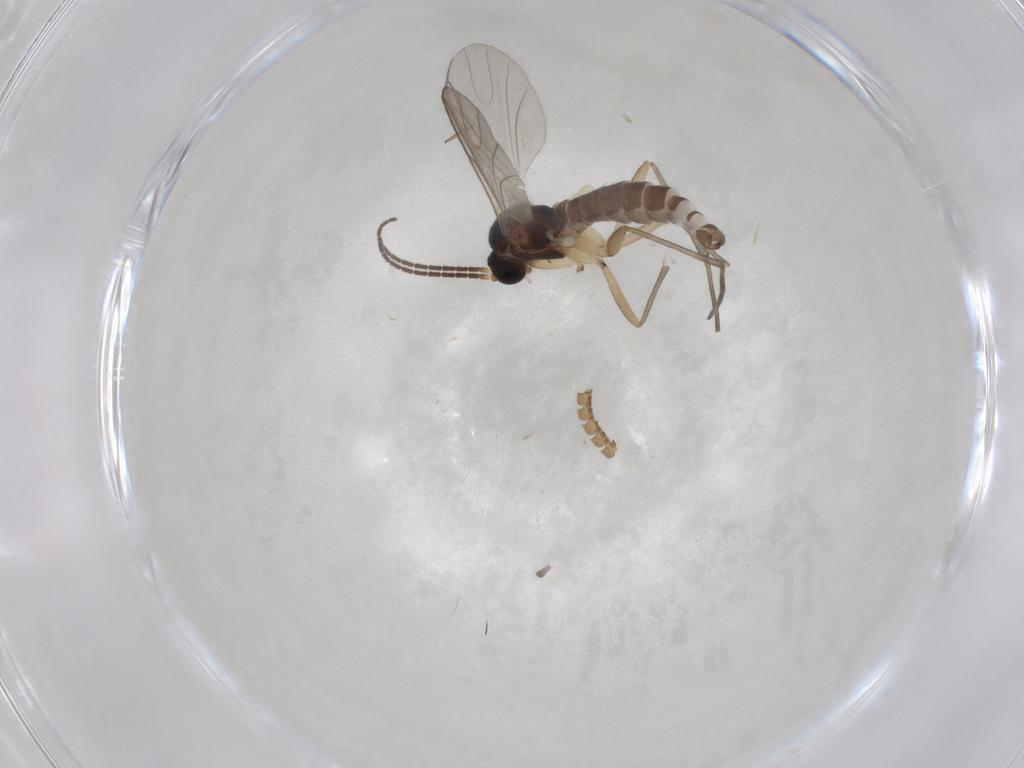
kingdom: Animalia
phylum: Arthropoda
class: Insecta
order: Diptera
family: Sciaridae
